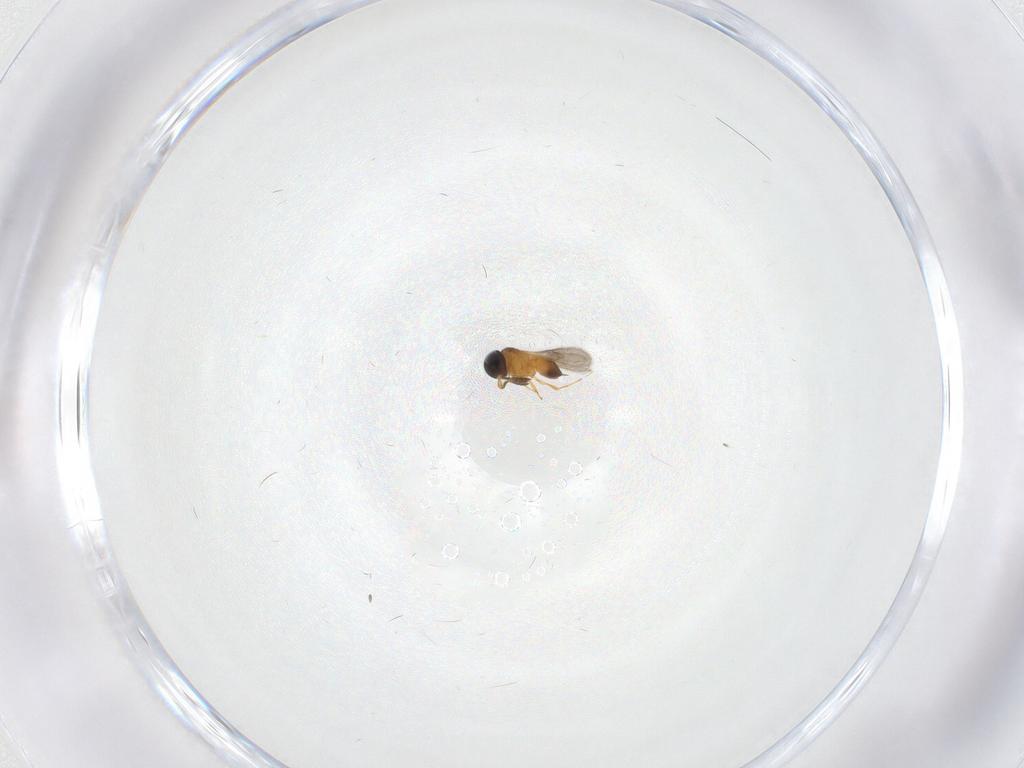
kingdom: Animalia
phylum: Arthropoda
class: Insecta
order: Hymenoptera
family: Scelionidae
